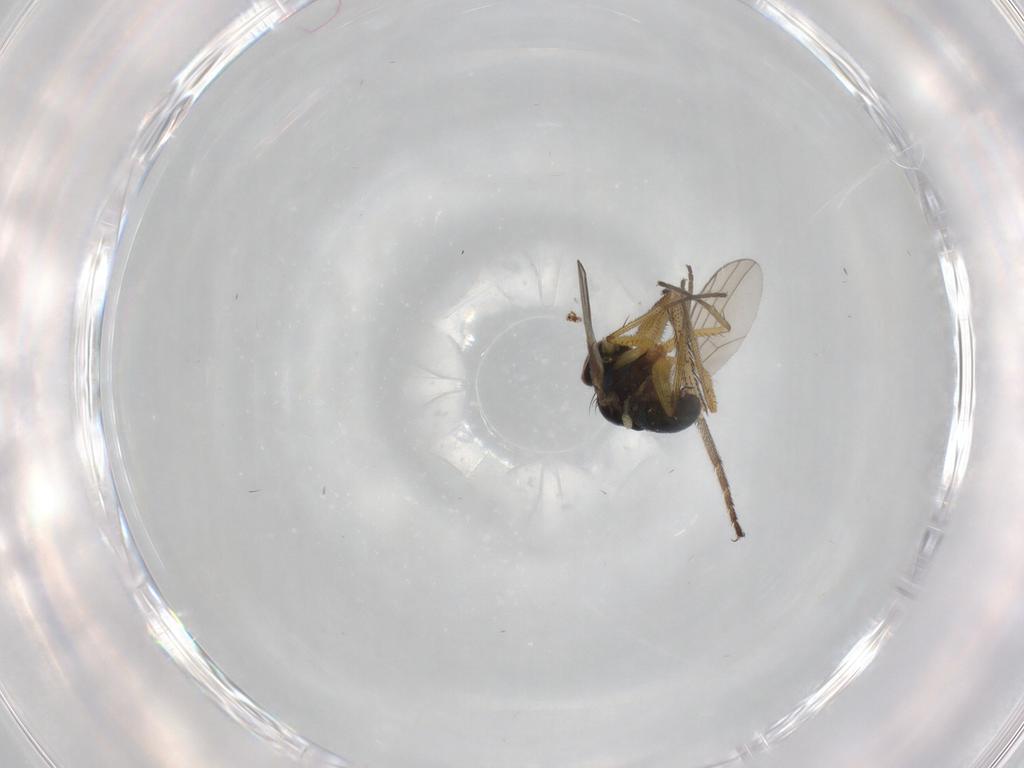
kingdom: Animalia
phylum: Arthropoda
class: Insecta
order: Diptera
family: Dolichopodidae
